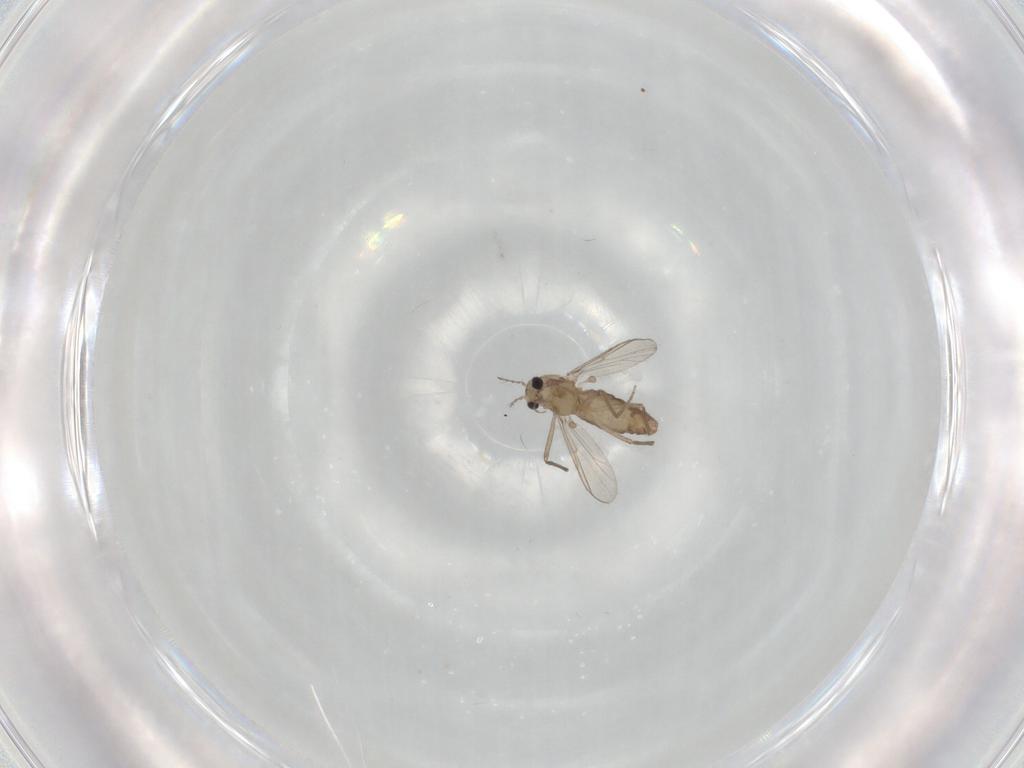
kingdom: Animalia
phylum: Arthropoda
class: Insecta
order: Diptera
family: Chironomidae
